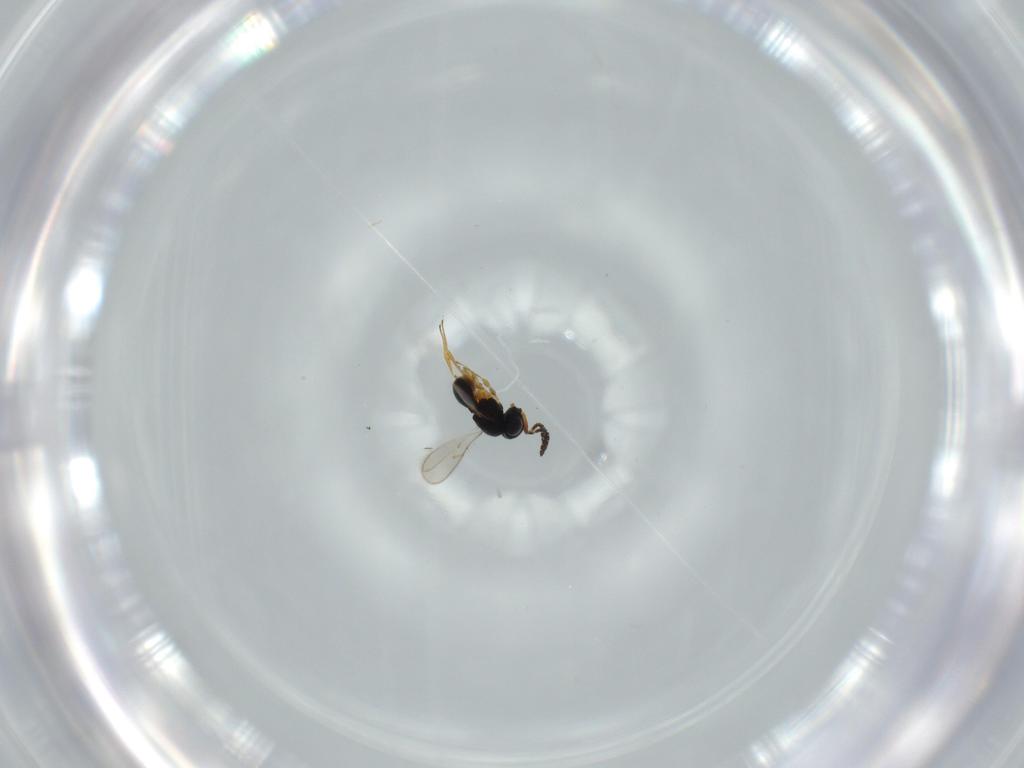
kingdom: Animalia
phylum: Arthropoda
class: Insecta
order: Hymenoptera
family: Scelionidae
